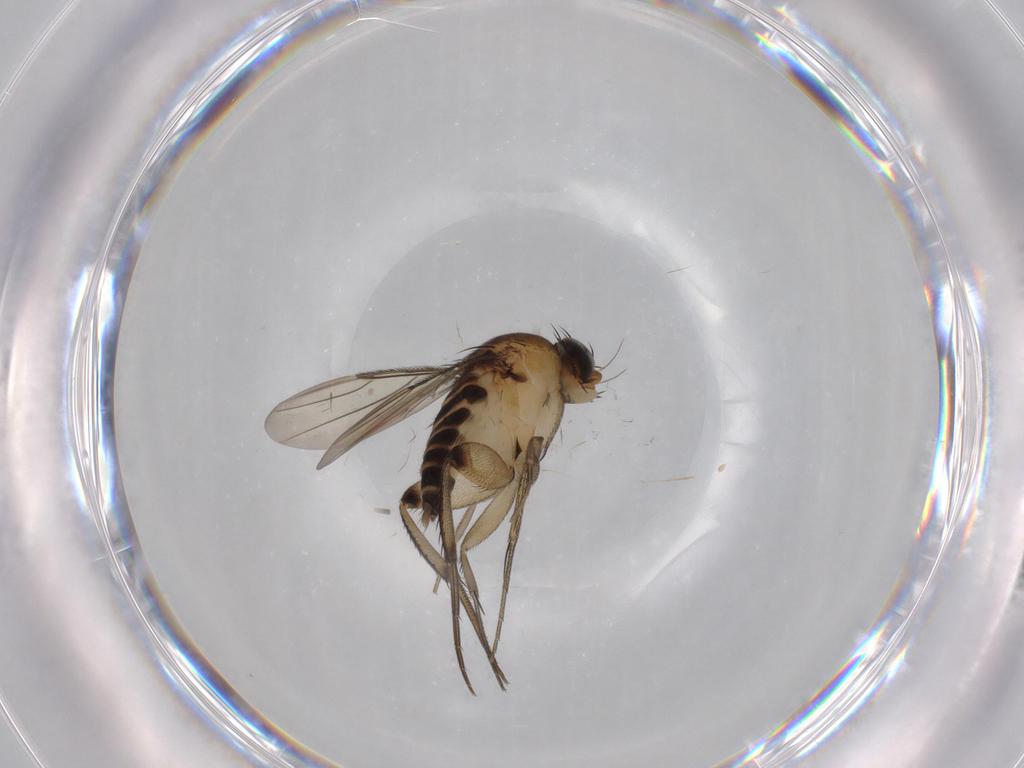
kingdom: Animalia
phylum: Arthropoda
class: Insecta
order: Diptera
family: Phoridae
